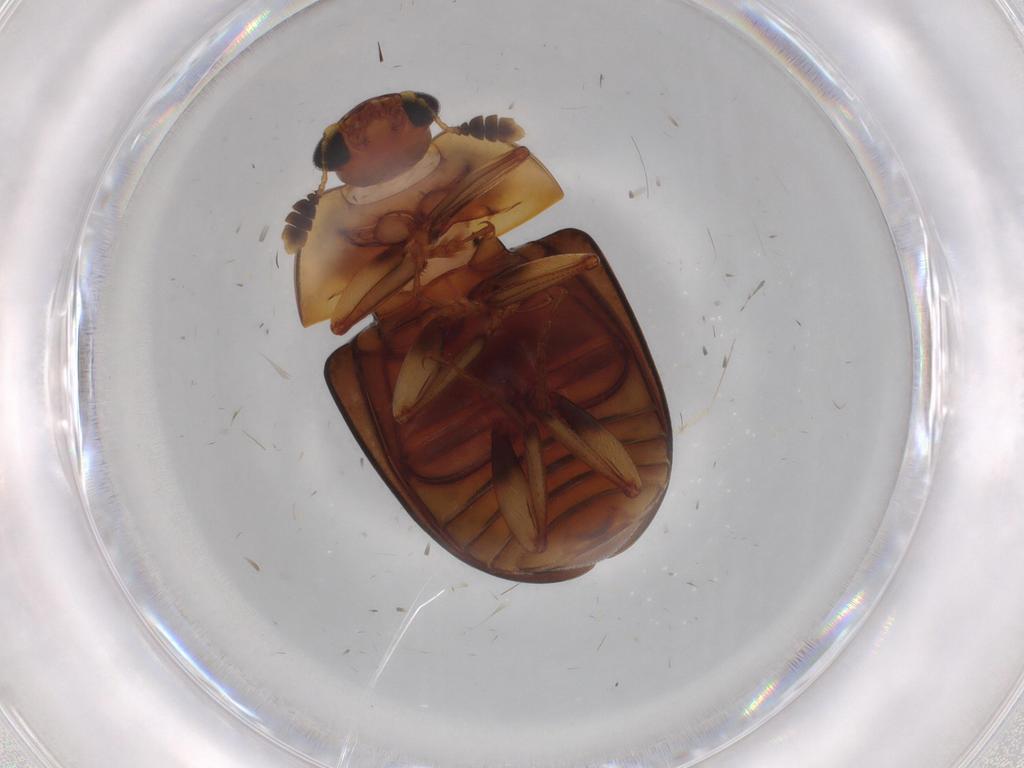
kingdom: Animalia
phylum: Arthropoda
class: Insecta
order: Coleoptera
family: Nitidulidae
